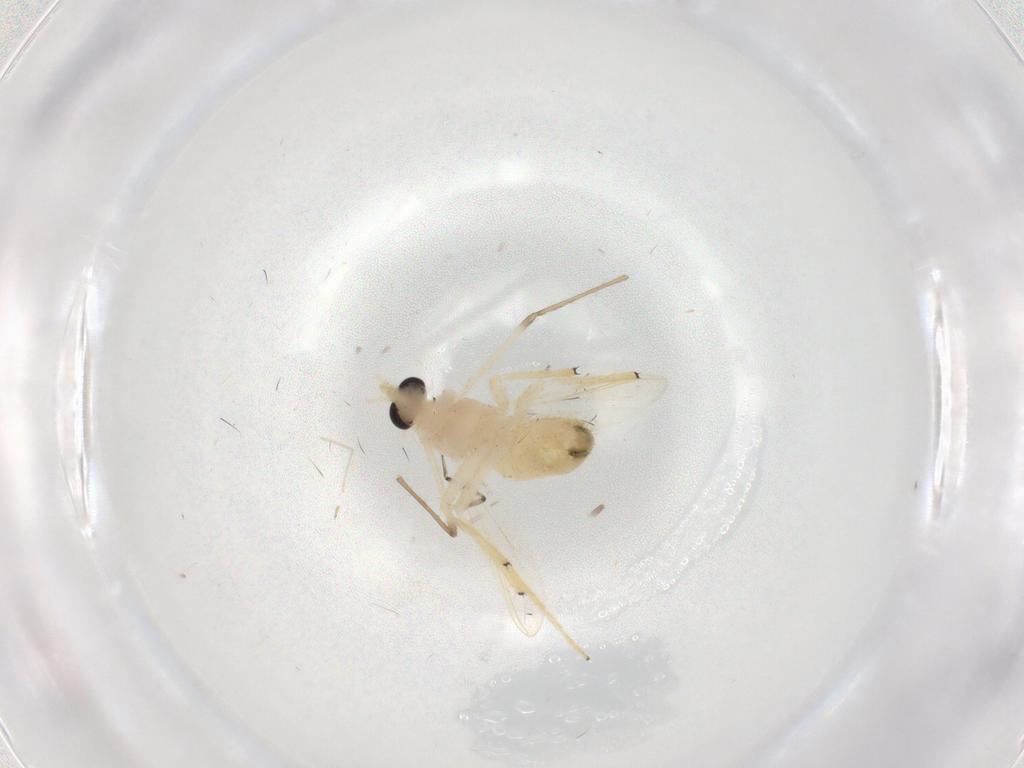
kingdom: Animalia
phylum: Arthropoda
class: Insecta
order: Diptera
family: Chironomidae
